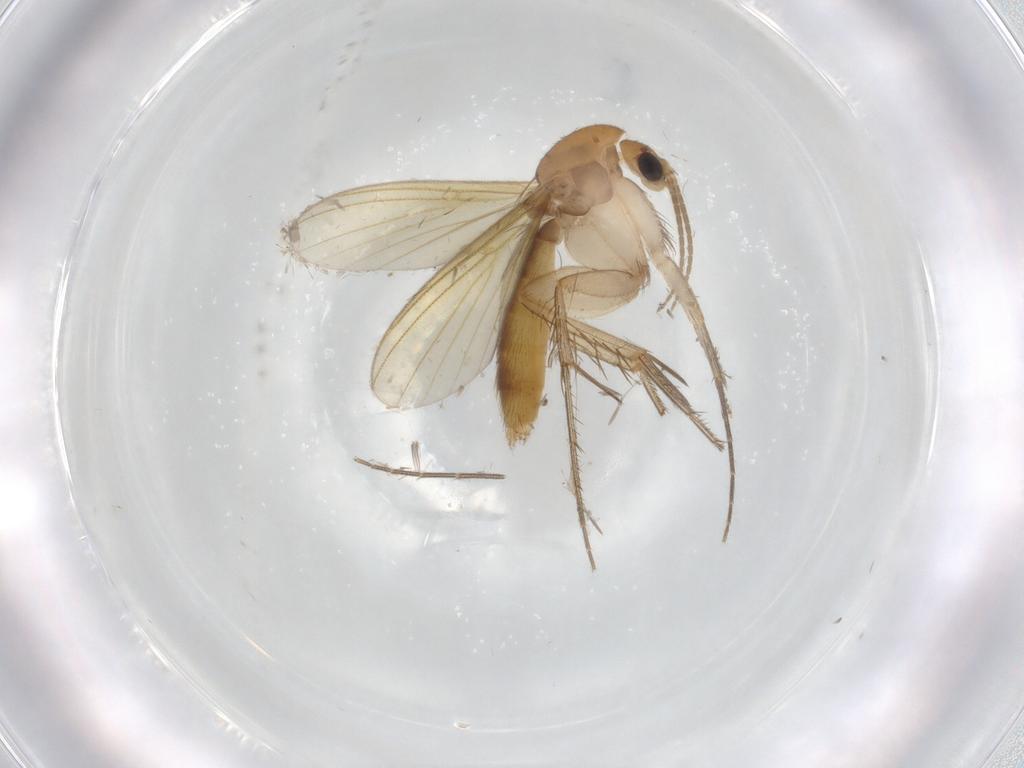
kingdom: Animalia
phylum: Arthropoda
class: Insecta
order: Diptera
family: Mycetophilidae
